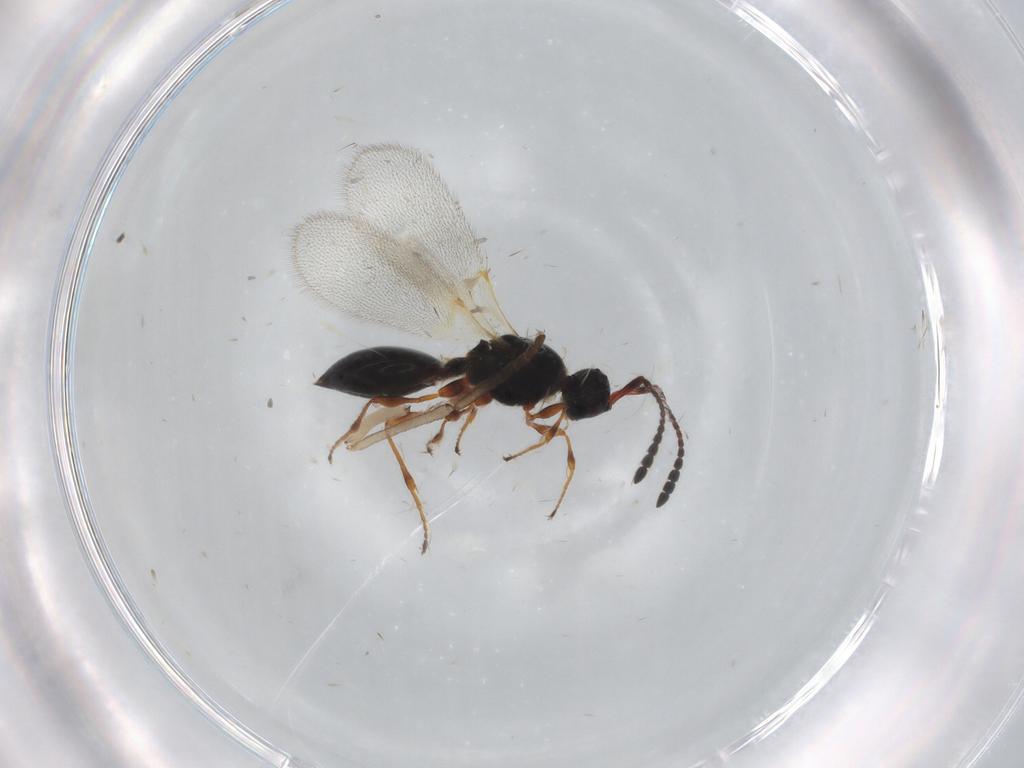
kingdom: Animalia
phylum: Arthropoda
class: Insecta
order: Hymenoptera
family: Diapriidae
